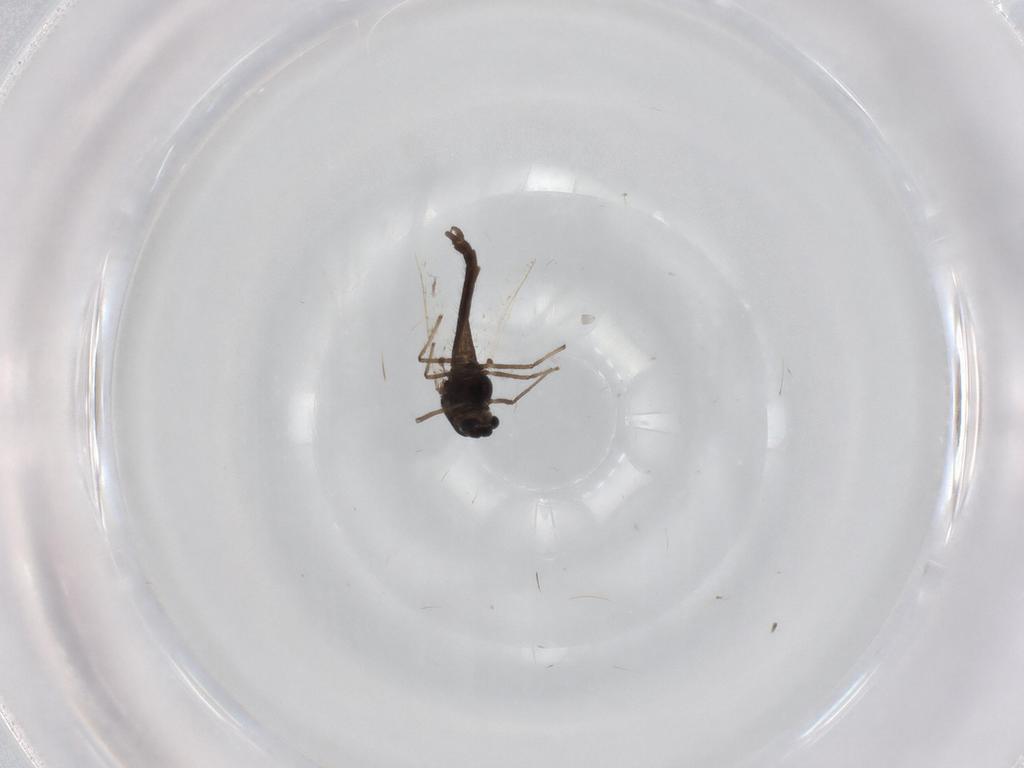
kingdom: Animalia
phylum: Arthropoda
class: Insecta
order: Diptera
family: Chironomidae
